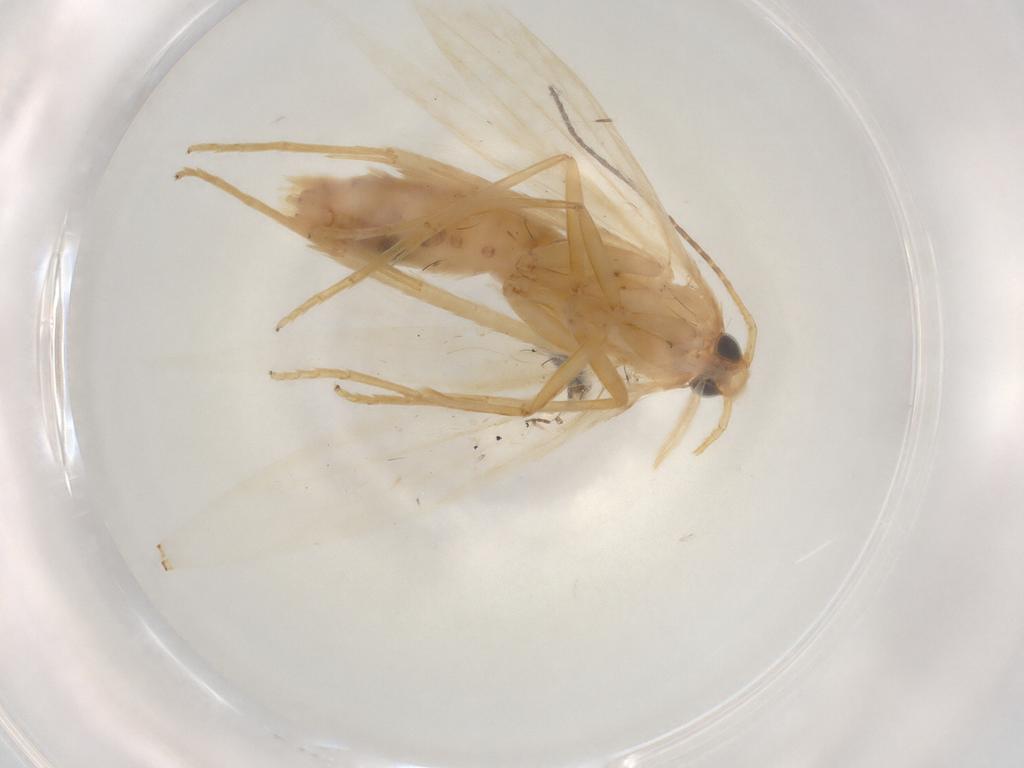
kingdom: Animalia
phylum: Arthropoda
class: Insecta
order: Lepidoptera
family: Coleophoridae
